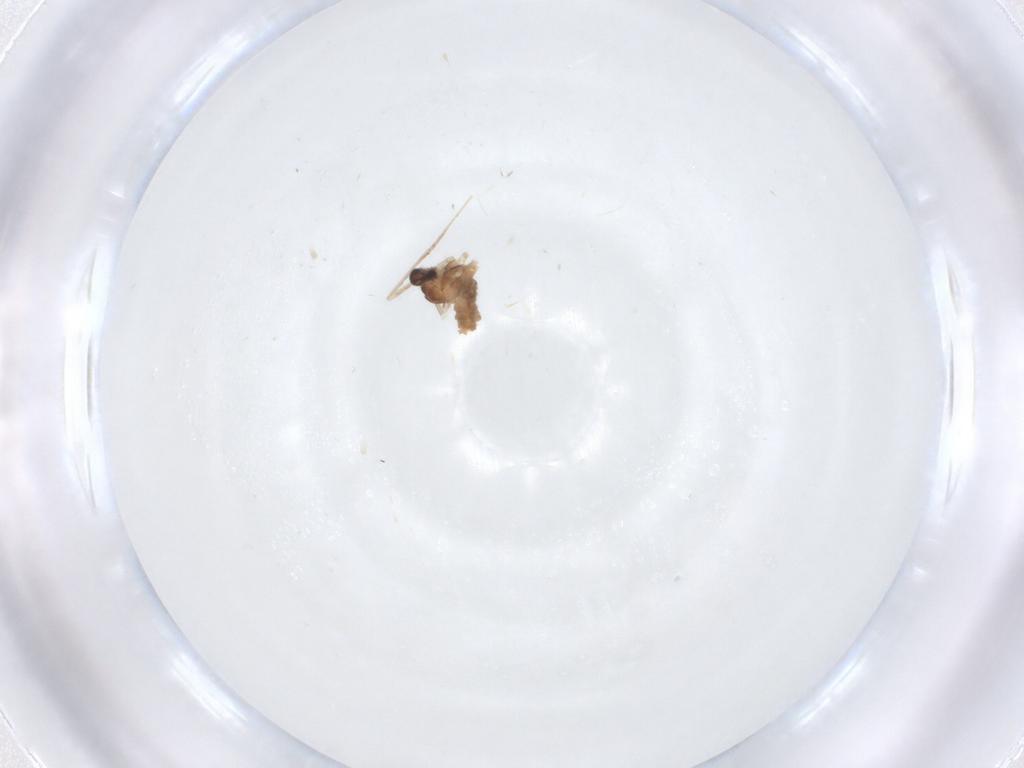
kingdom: Animalia
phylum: Arthropoda
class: Insecta
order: Diptera
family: Cecidomyiidae
